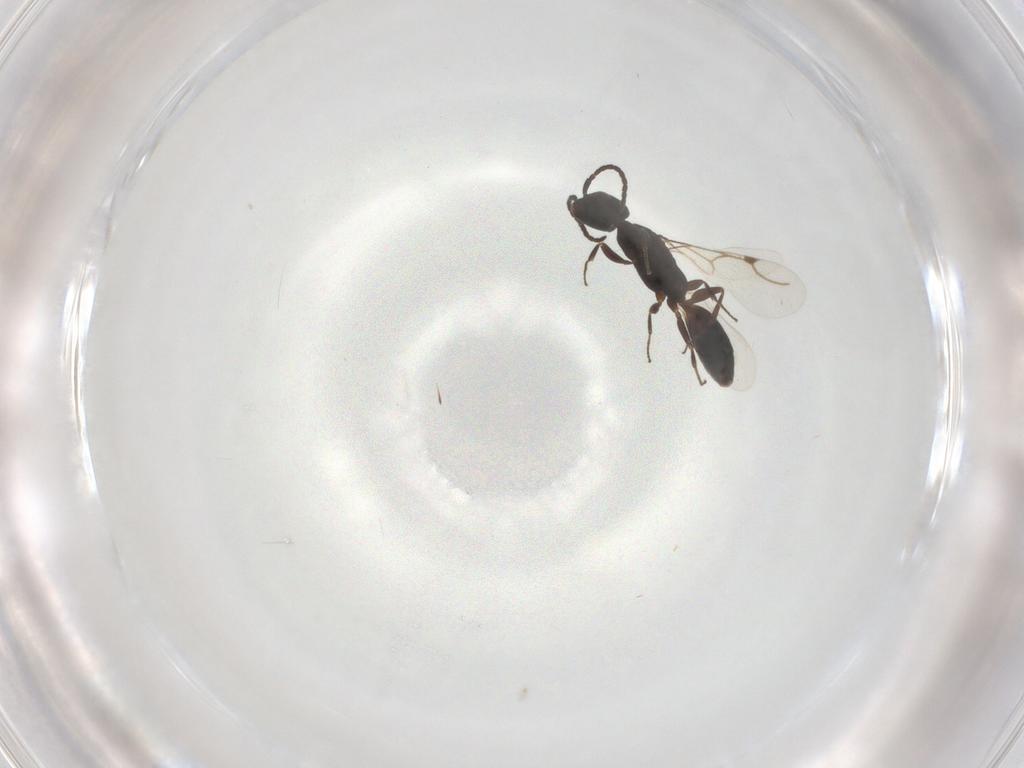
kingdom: Animalia
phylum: Arthropoda
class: Insecta
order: Hymenoptera
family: Bethylidae
